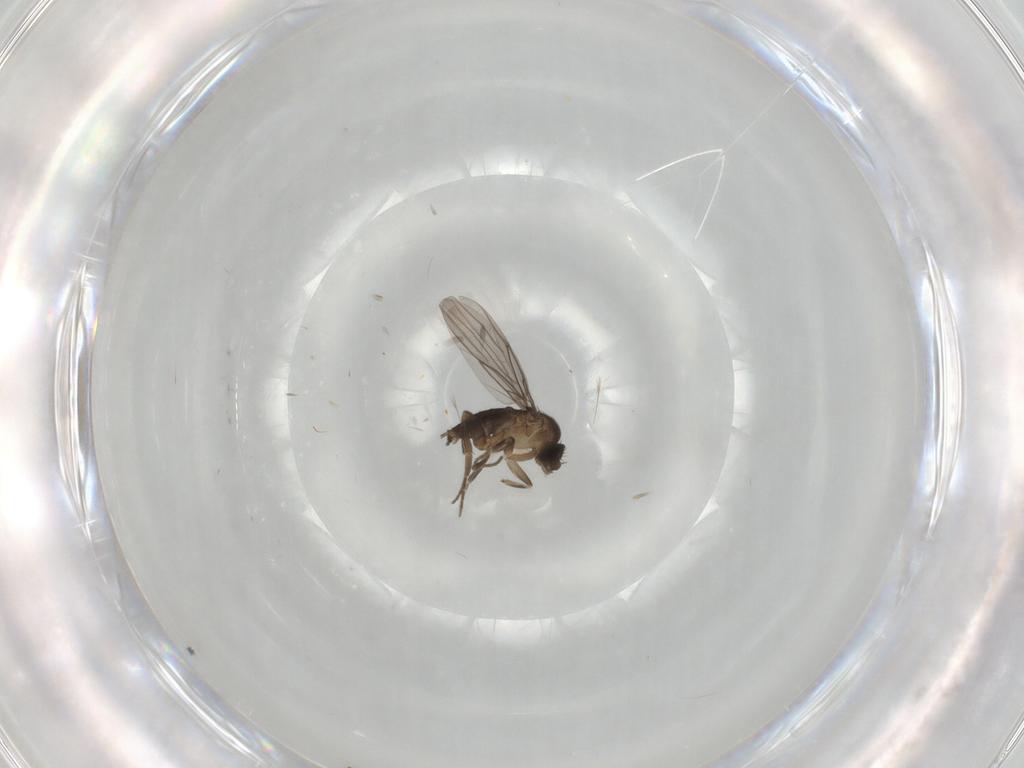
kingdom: Animalia
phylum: Arthropoda
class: Insecta
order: Diptera
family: Phoridae
